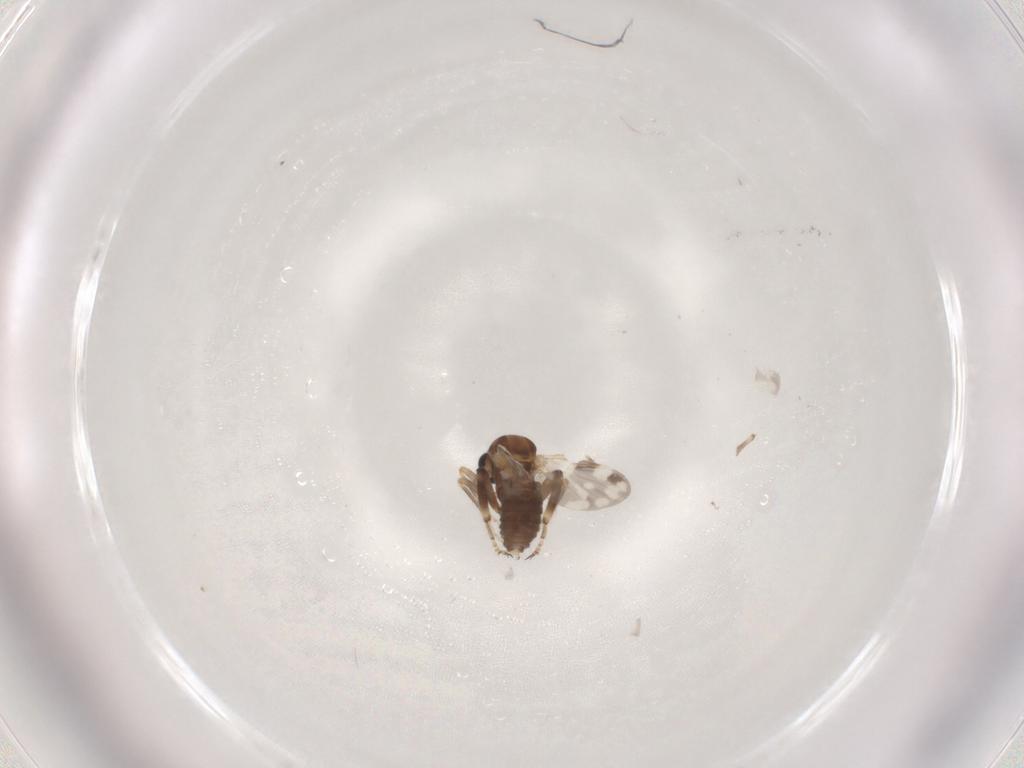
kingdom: Animalia
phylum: Arthropoda
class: Insecta
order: Diptera
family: Ceratopogonidae
